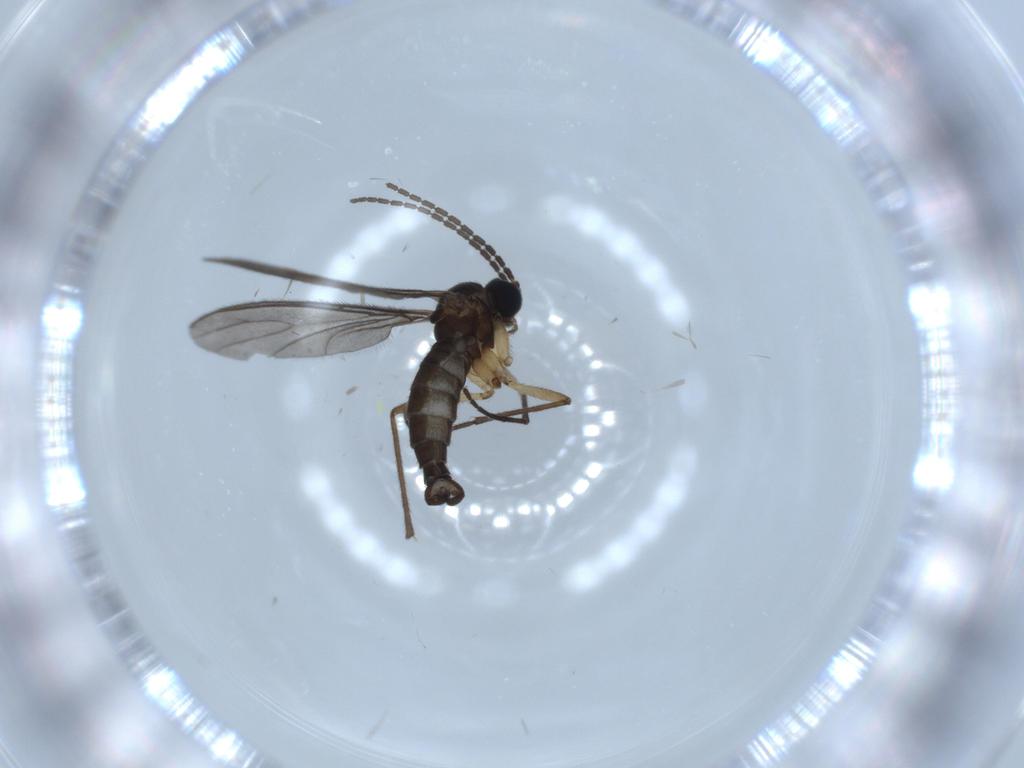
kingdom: Animalia
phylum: Arthropoda
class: Insecta
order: Diptera
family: Sciaridae
